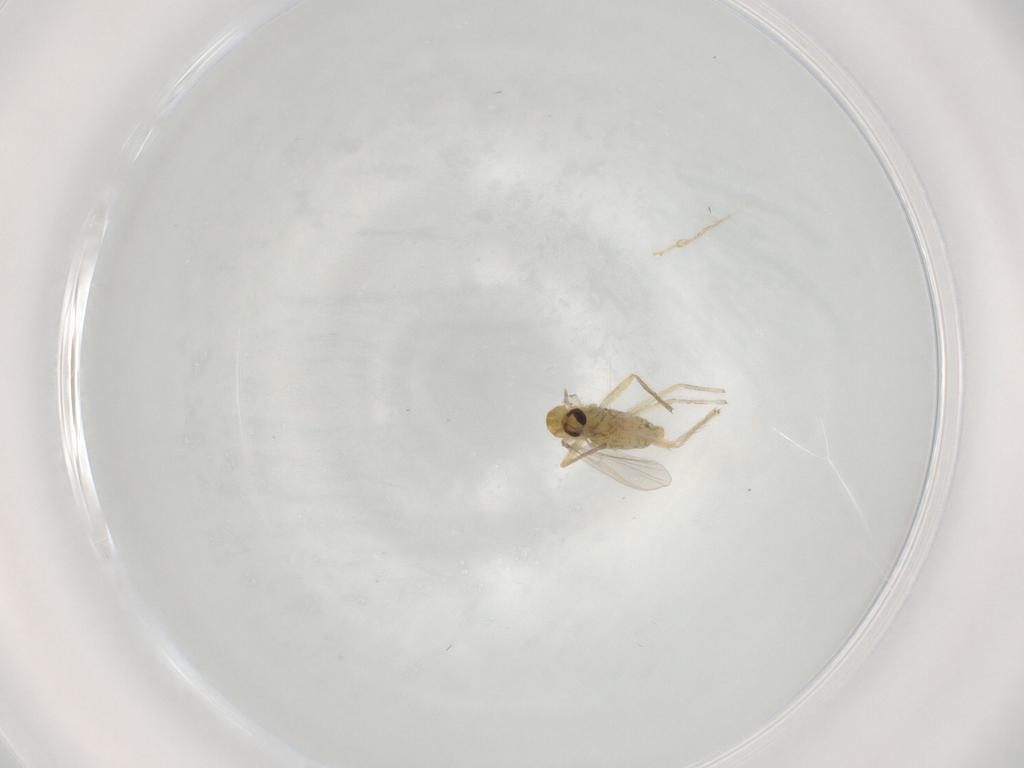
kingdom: Animalia
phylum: Arthropoda
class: Insecta
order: Diptera
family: Chironomidae
